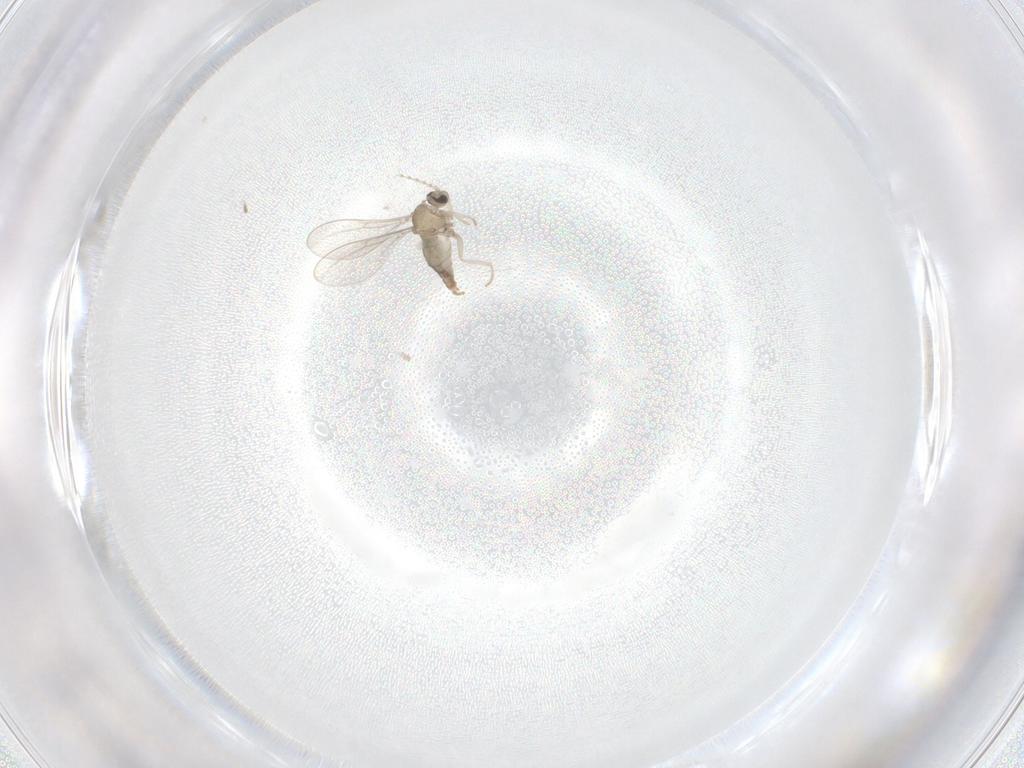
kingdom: Animalia
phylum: Arthropoda
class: Insecta
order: Diptera
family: Cecidomyiidae
